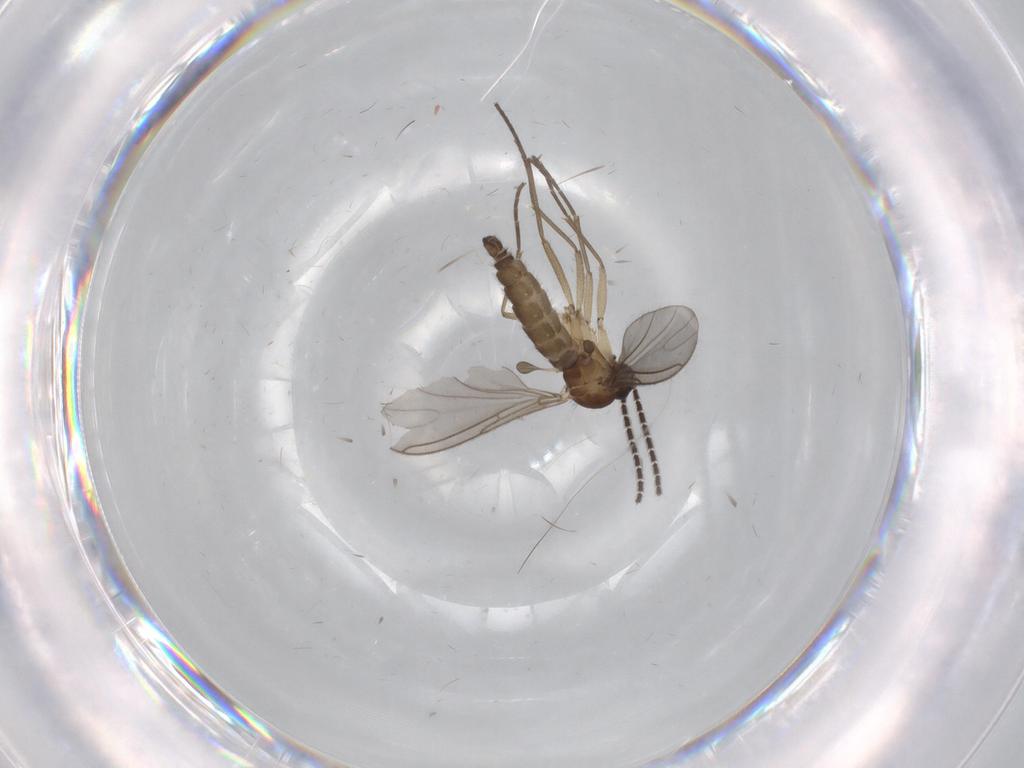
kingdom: Animalia
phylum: Arthropoda
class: Insecta
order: Diptera
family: Sciaridae
